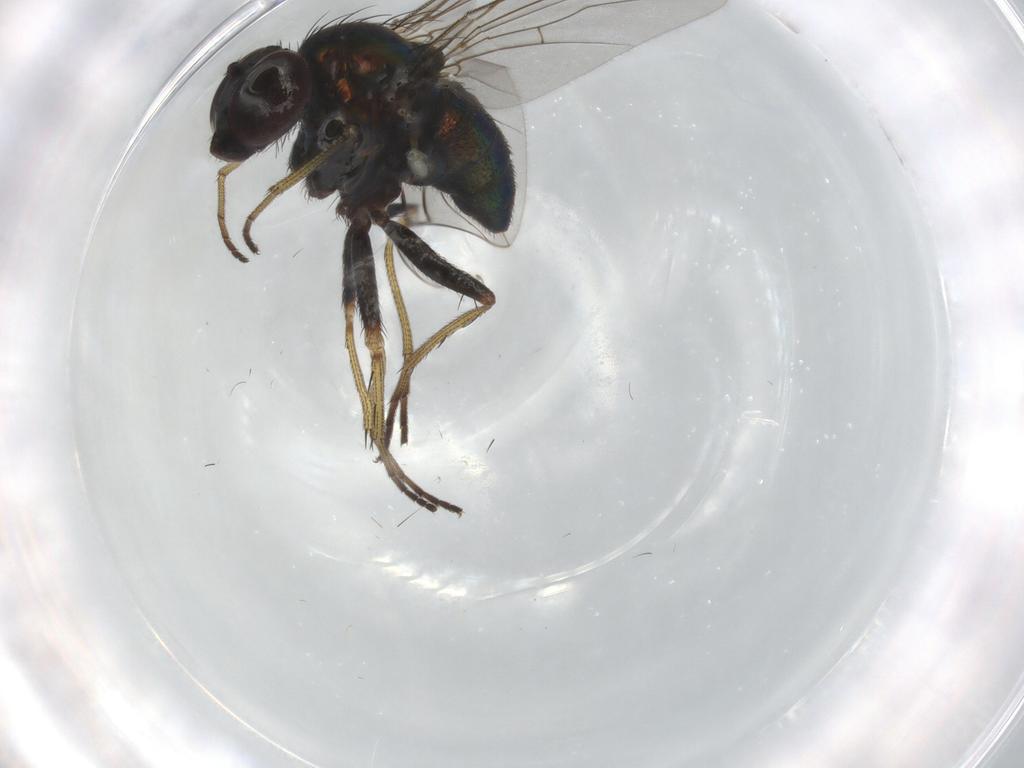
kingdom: Animalia
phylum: Arthropoda
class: Insecta
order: Diptera
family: Dolichopodidae
